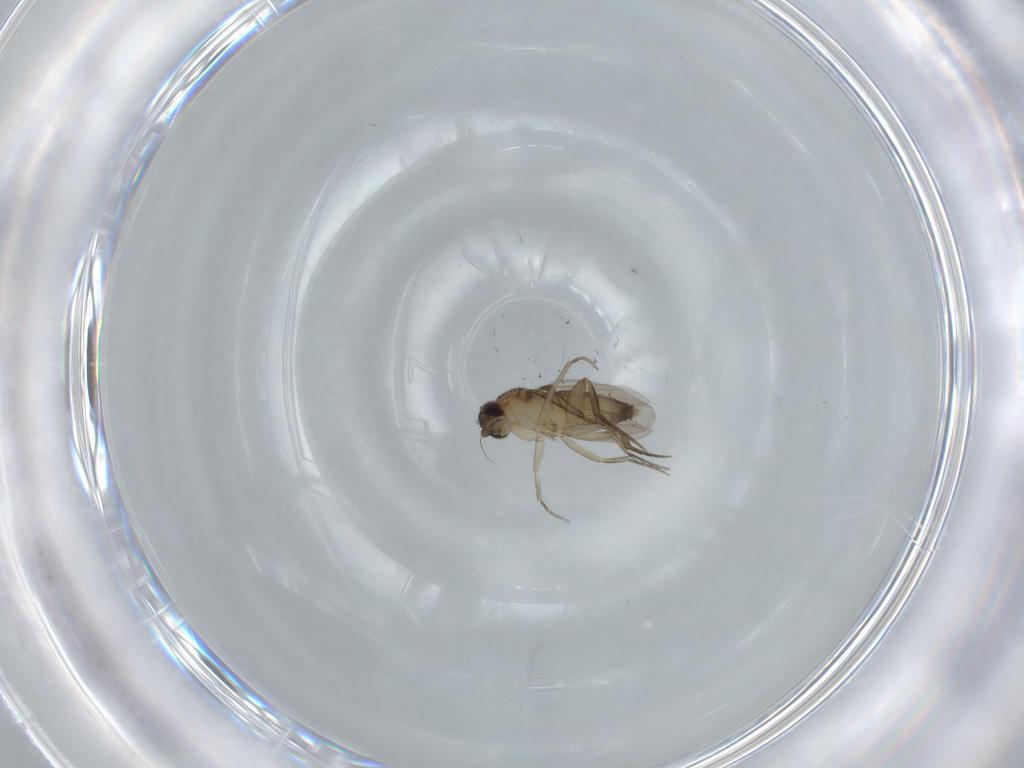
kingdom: Animalia
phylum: Arthropoda
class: Insecta
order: Diptera
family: Phoridae
